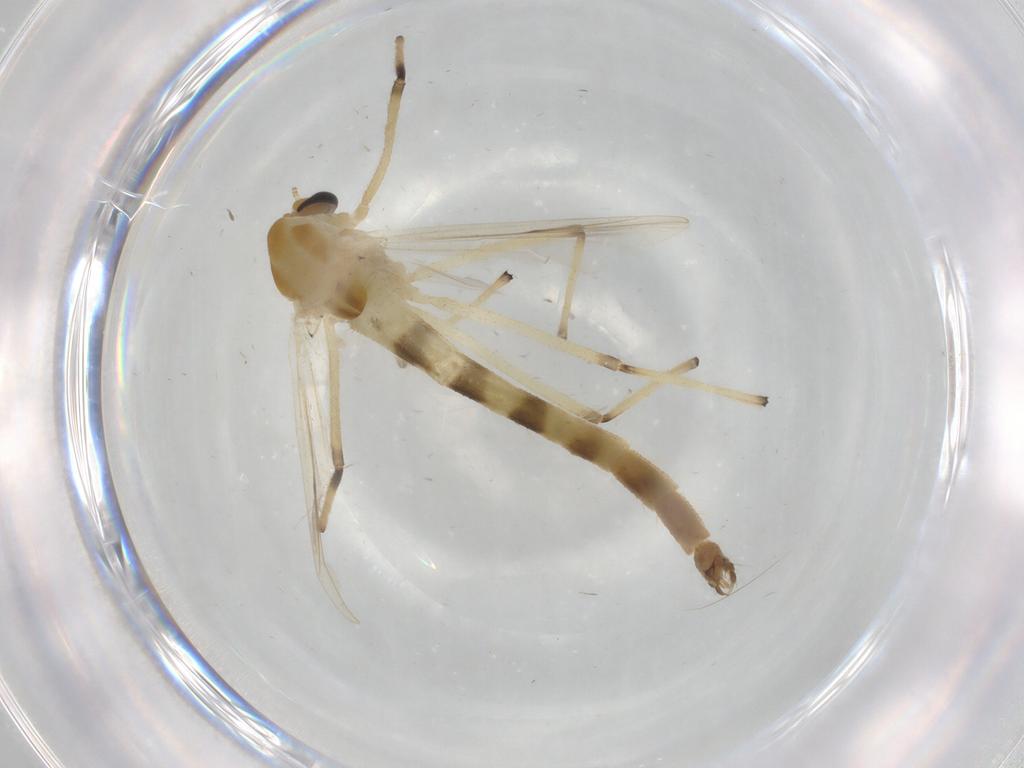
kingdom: Animalia
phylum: Arthropoda
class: Insecta
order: Diptera
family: Chironomidae
